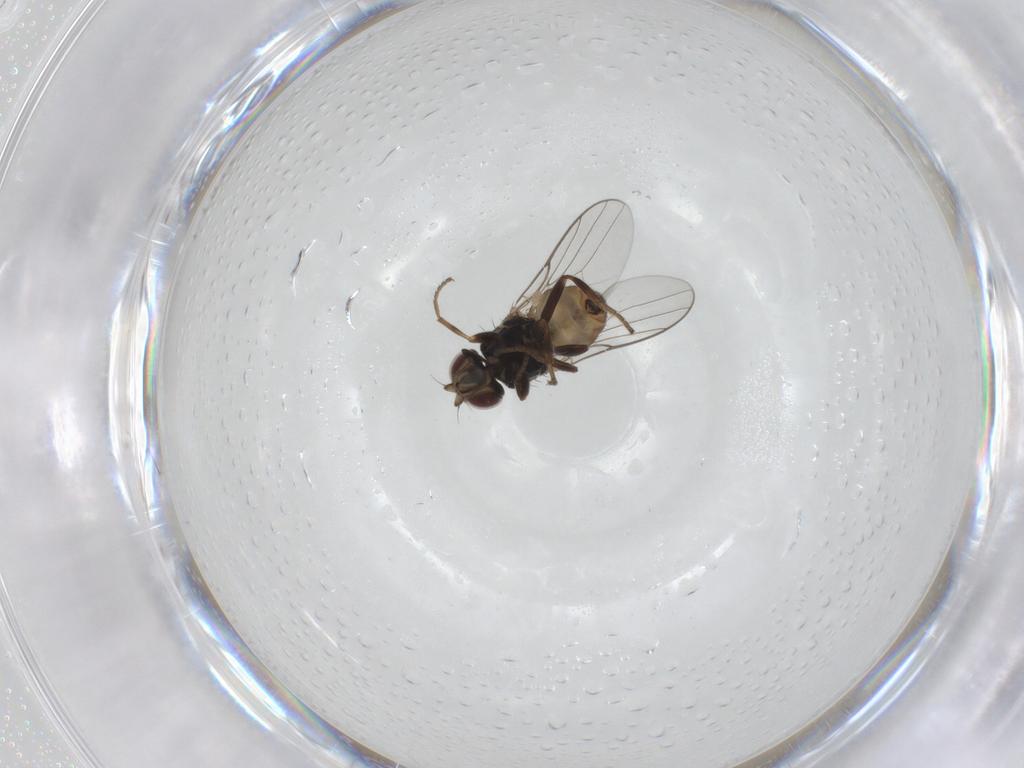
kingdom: Animalia
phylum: Arthropoda
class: Insecta
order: Diptera
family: Chloropidae
